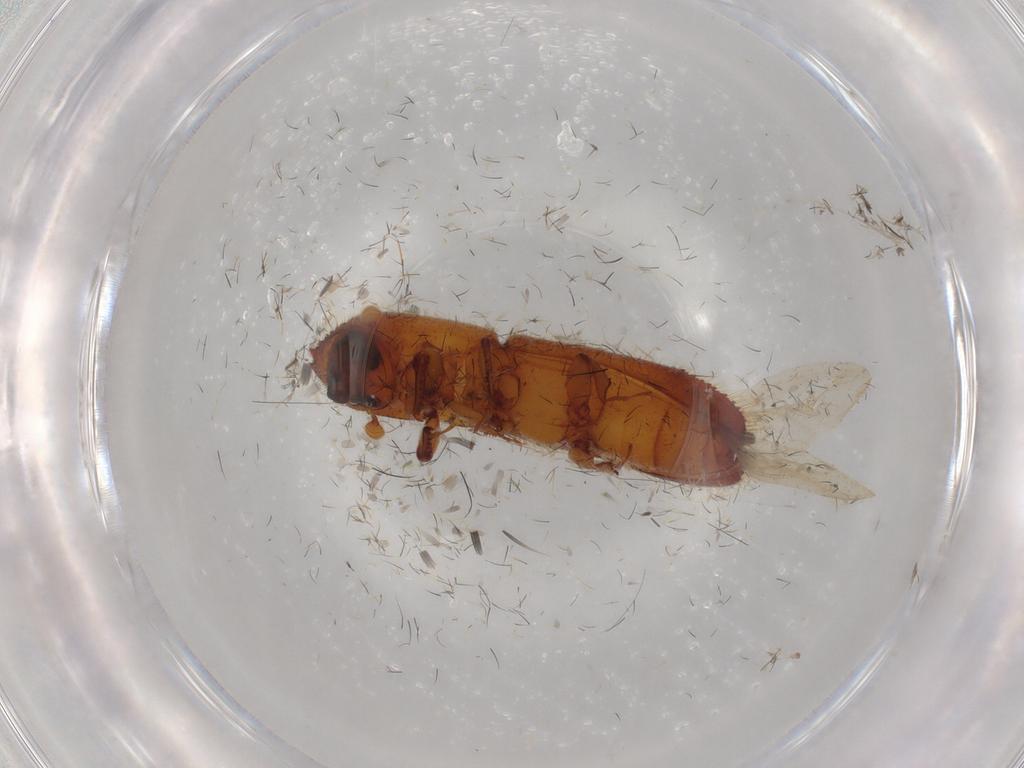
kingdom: Animalia
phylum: Arthropoda
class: Insecta
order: Coleoptera
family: Curculionidae
